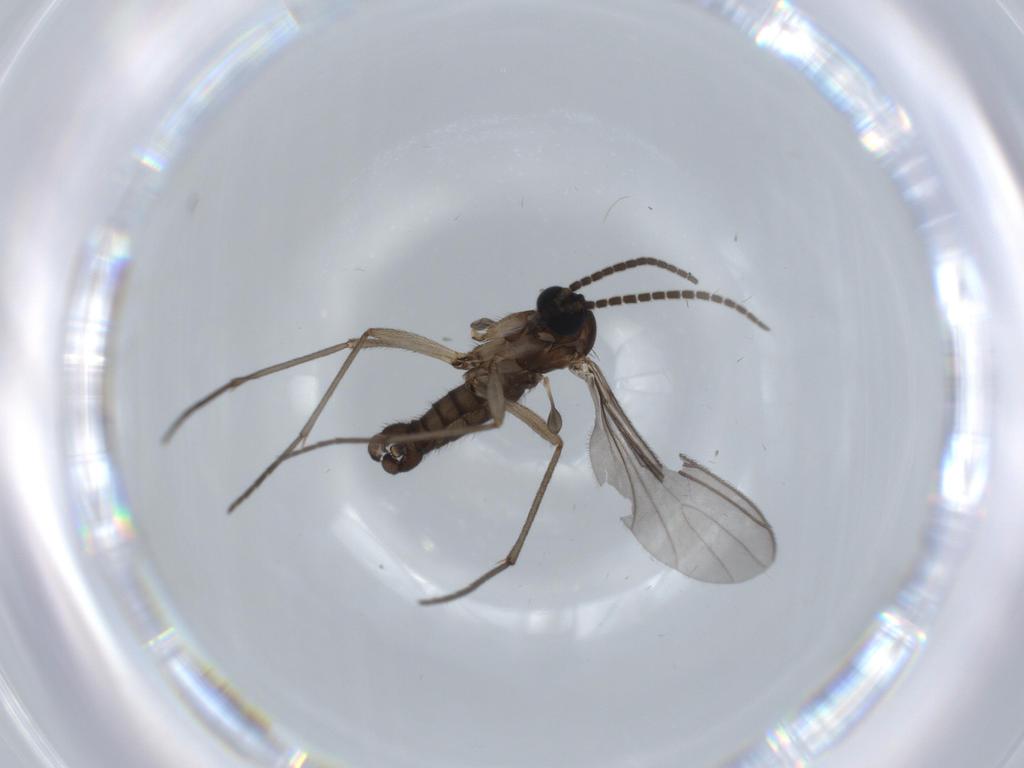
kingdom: Animalia
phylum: Arthropoda
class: Insecta
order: Diptera
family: Sciaridae
